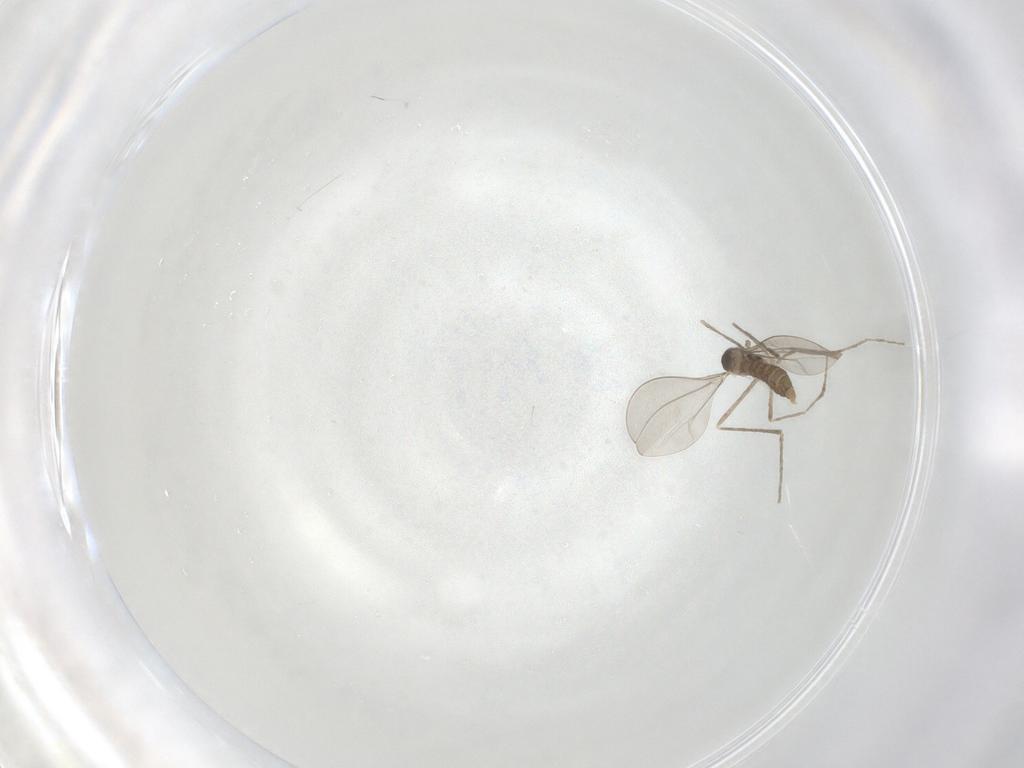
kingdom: Animalia
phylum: Arthropoda
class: Insecta
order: Diptera
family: Cecidomyiidae
